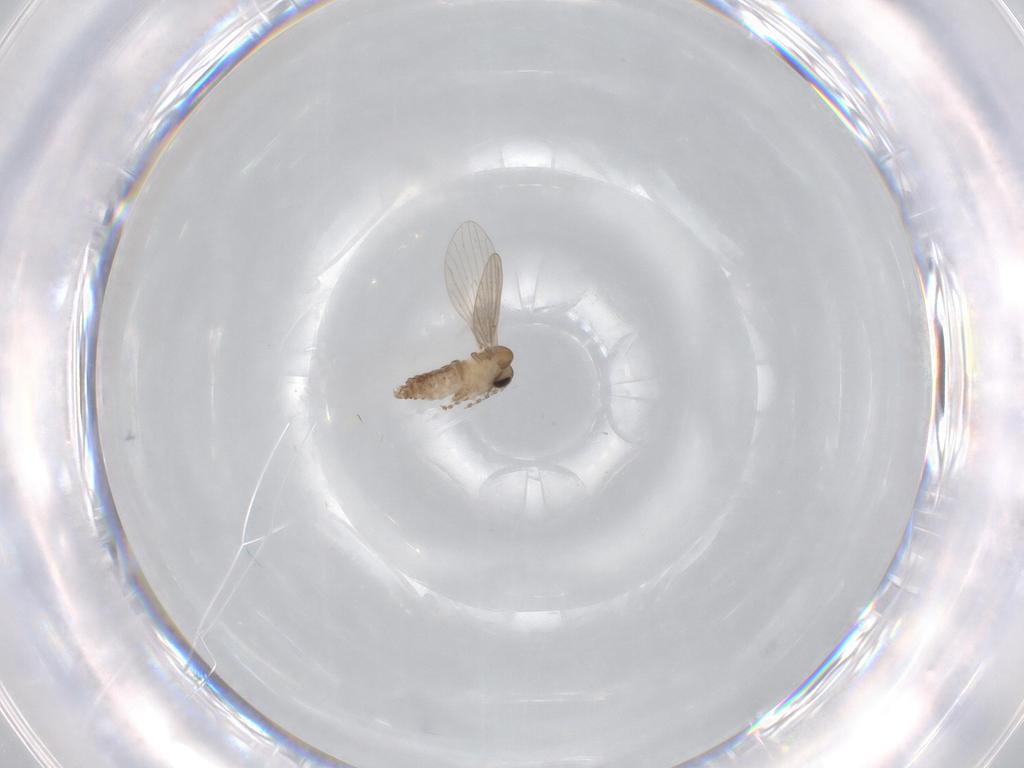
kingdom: Animalia
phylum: Arthropoda
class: Insecta
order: Diptera
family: Psychodidae
